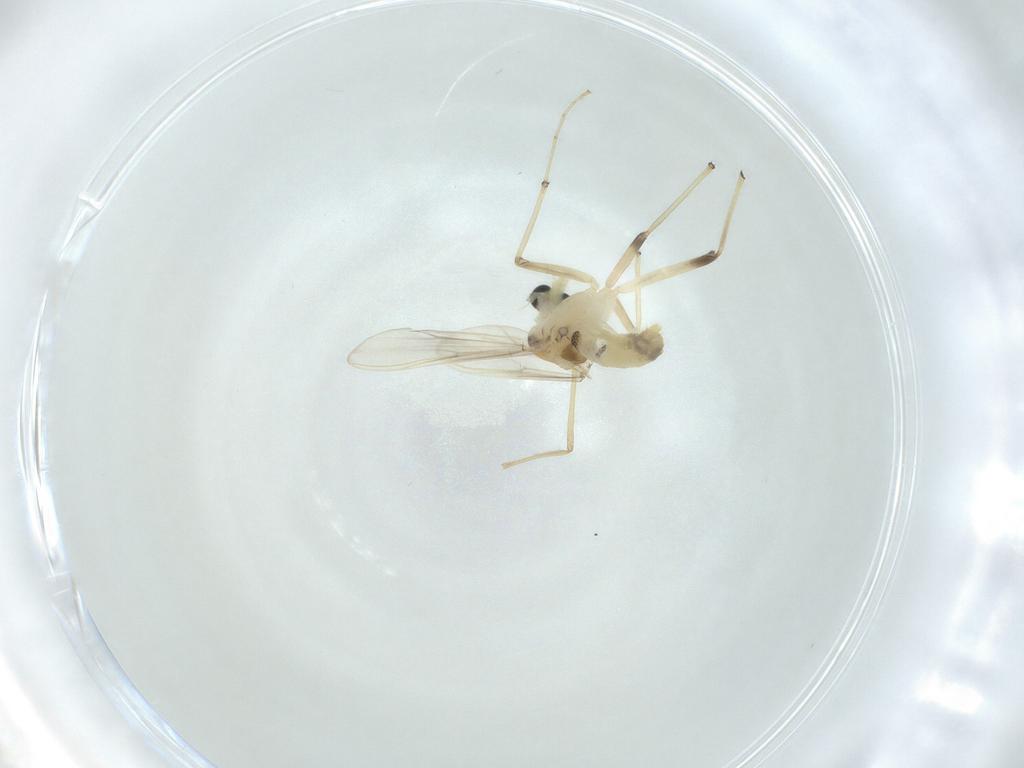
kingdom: Animalia
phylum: Arthropoda
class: Insecta
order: Diptera
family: Chironomidae
